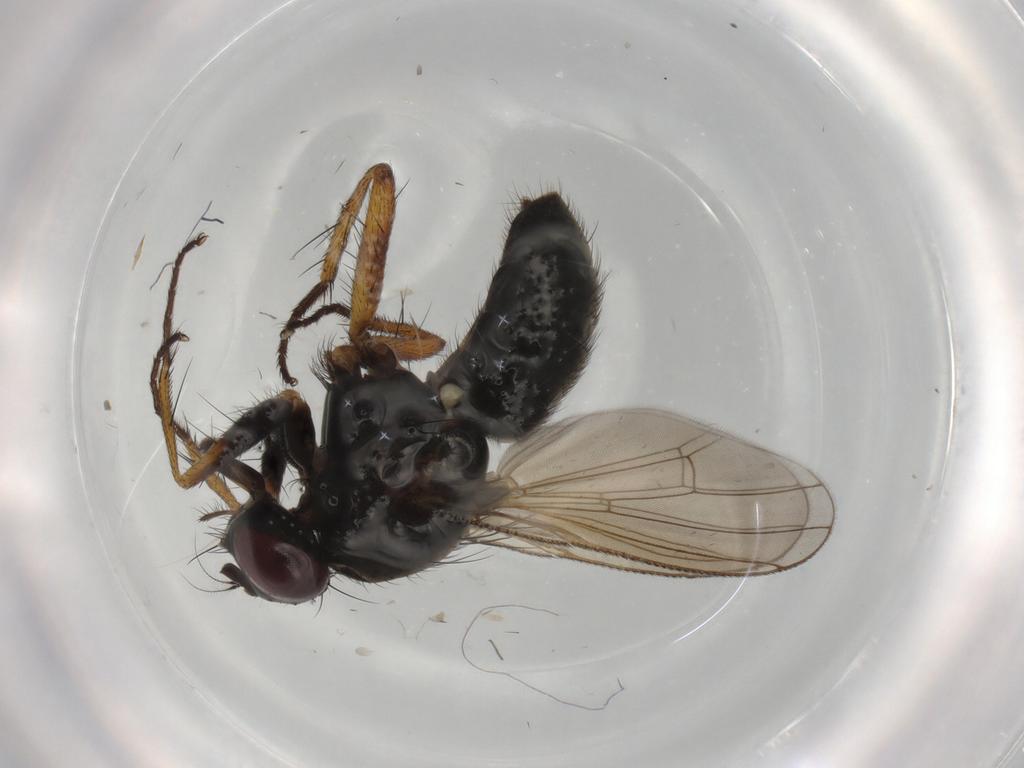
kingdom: Animalia
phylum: Arthropoda
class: Insecta
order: Diptera
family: Muscidae
